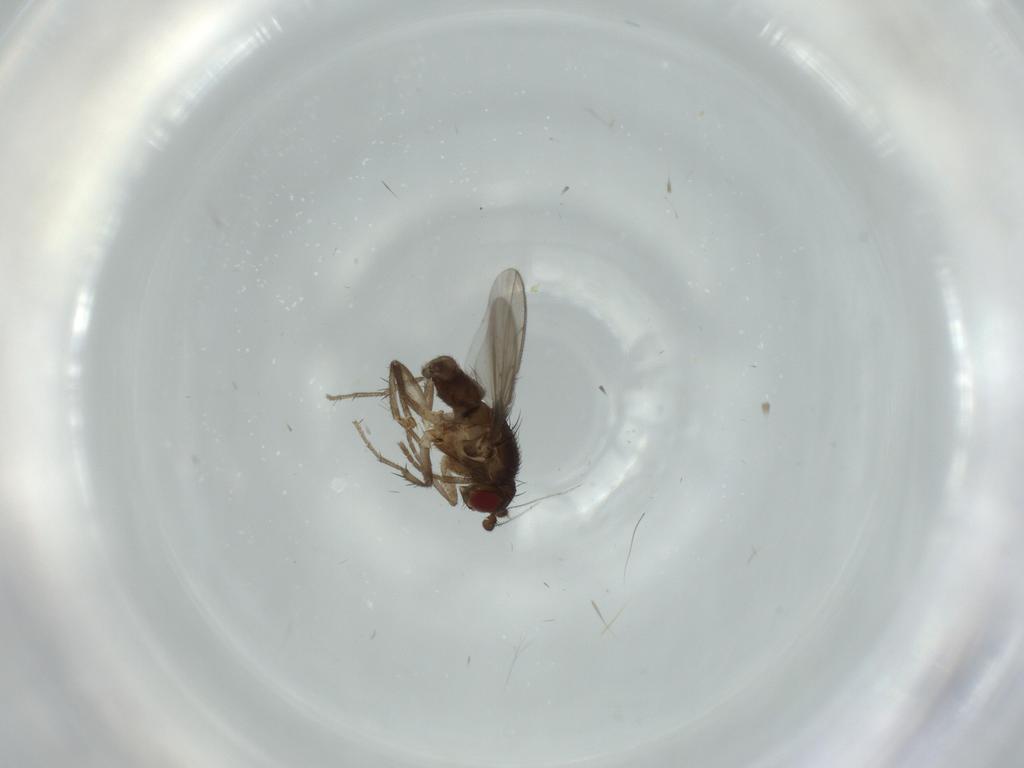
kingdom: Animalia
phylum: Arthropoda
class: Insecta
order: Diptera
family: Sphaeroceridae
